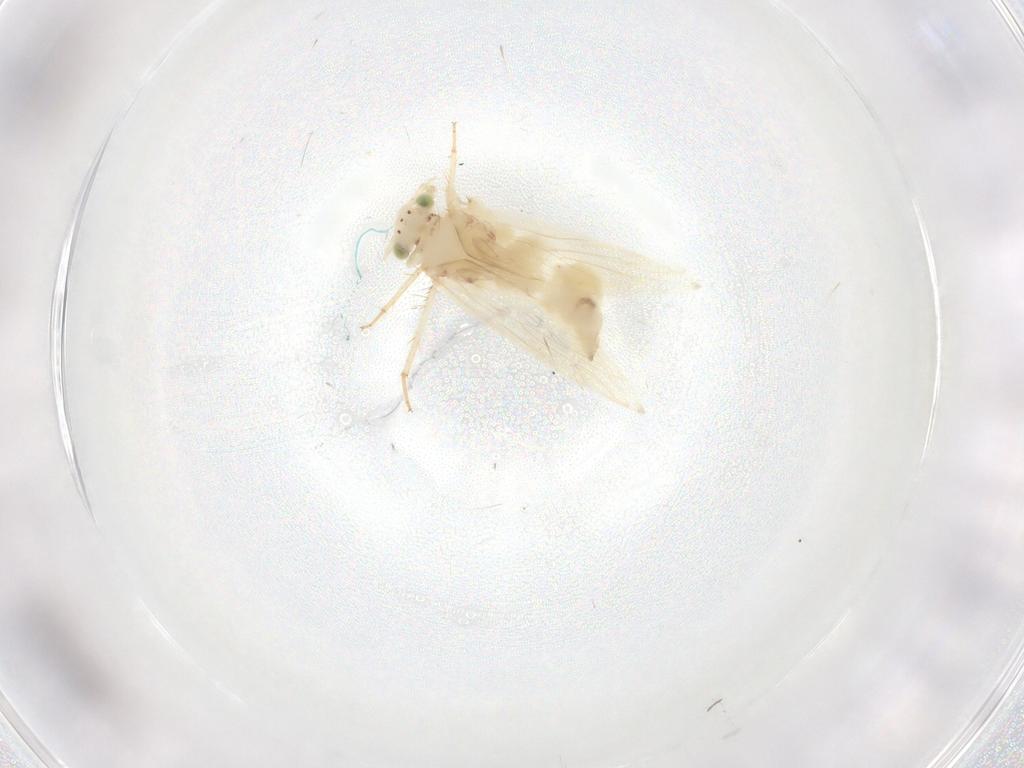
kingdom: Animalia
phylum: Arthropoda
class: Insecta
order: Psocodea
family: Lepidopsocidae
